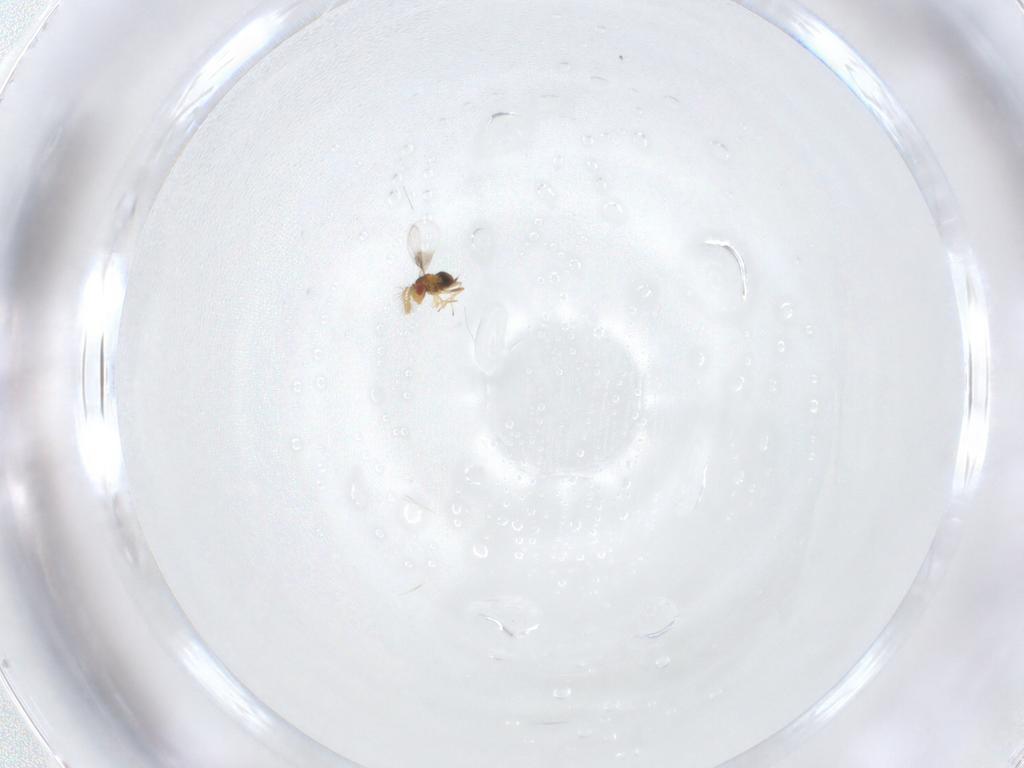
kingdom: Animalia
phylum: Arthropoda
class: Insecta
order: Hymenoptera
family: Trichogrammatidae
